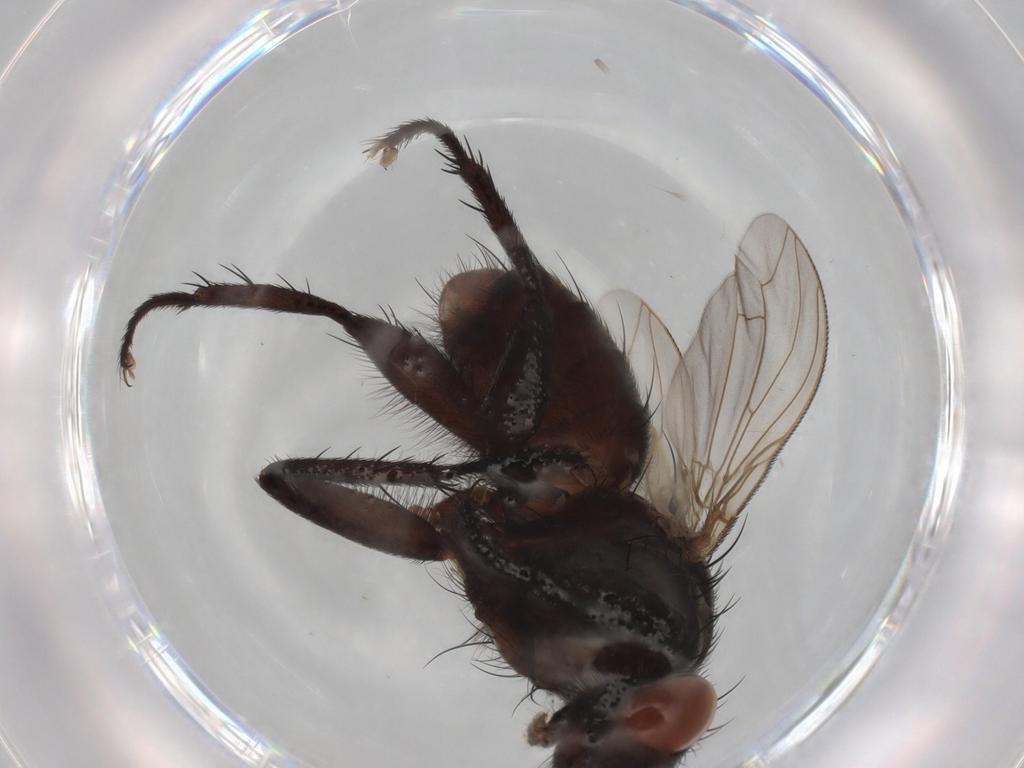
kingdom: Animalia
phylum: Arthropoda
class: Insecta
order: Diptera
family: Sarcophagidae
